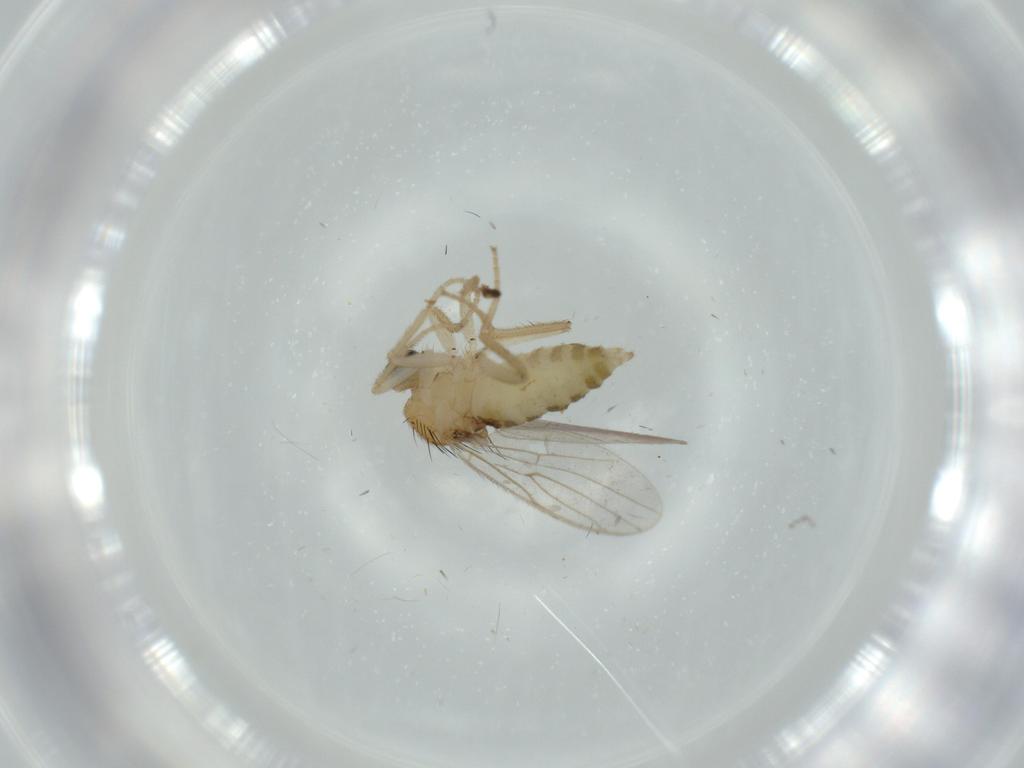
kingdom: Animalia
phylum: Arthropoda
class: Insecta
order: Diptera
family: Hybotidae
